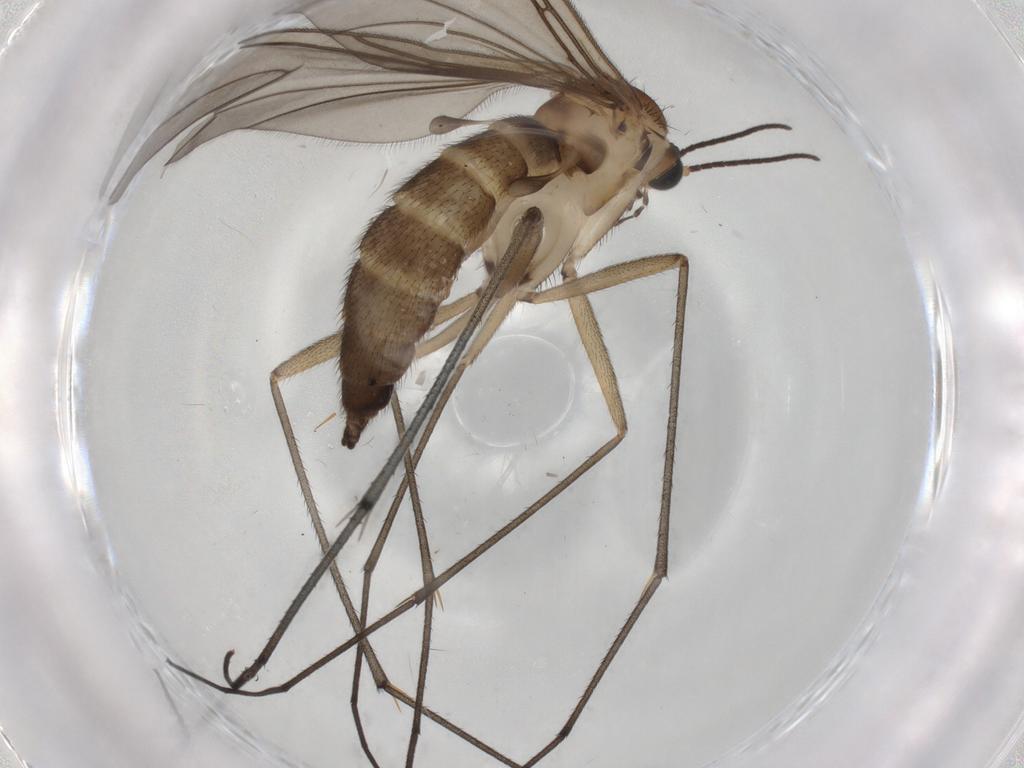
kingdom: Animalia
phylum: Arthropoda
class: Insecta
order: Diptera
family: Sciaridae
